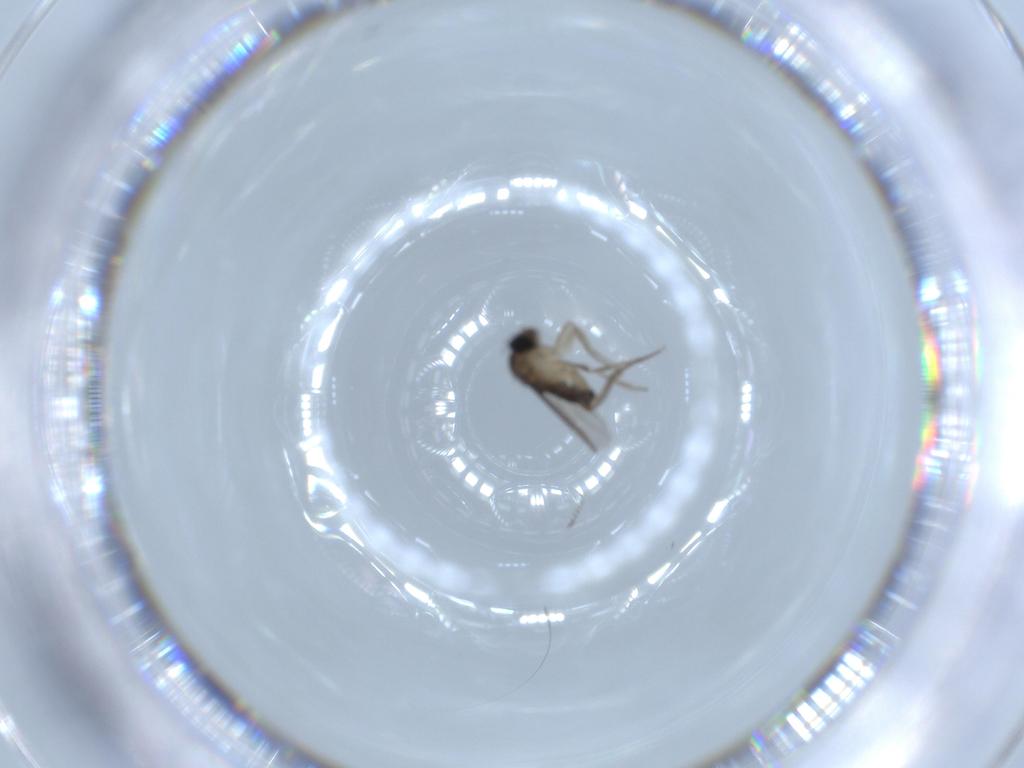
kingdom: Animalia
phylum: Arthropoda
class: Insecta
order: Diptera
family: Phoridae
